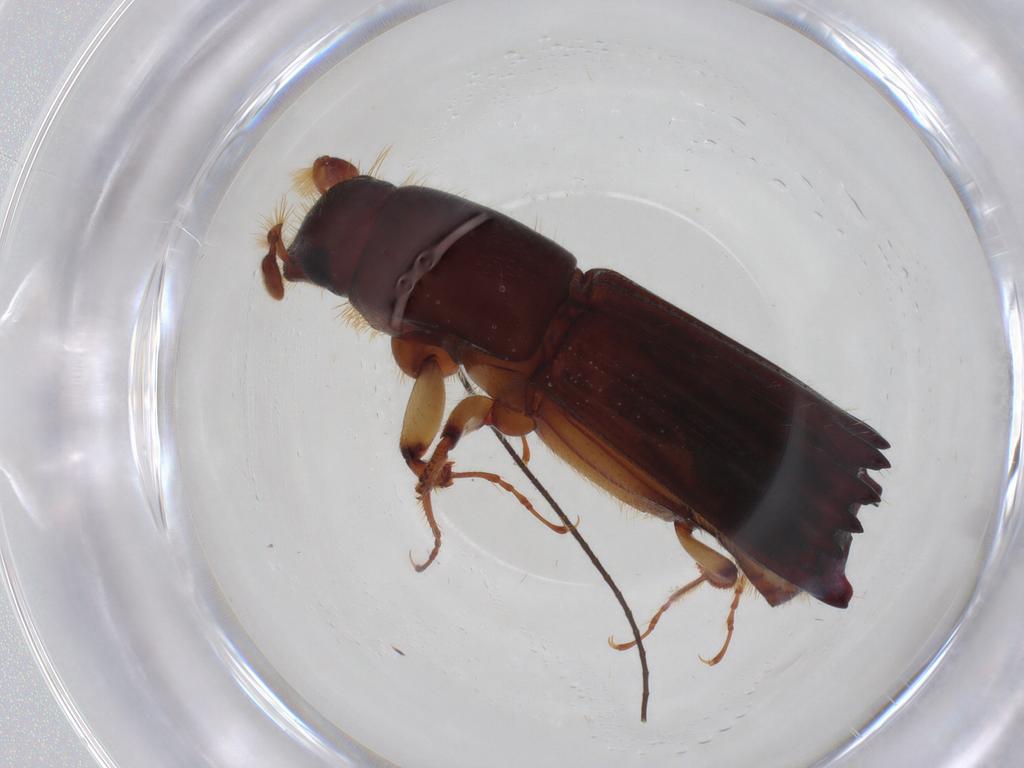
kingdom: Animalia
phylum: Arthropoda
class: Insecta
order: Coleoptera
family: Curculionidae
